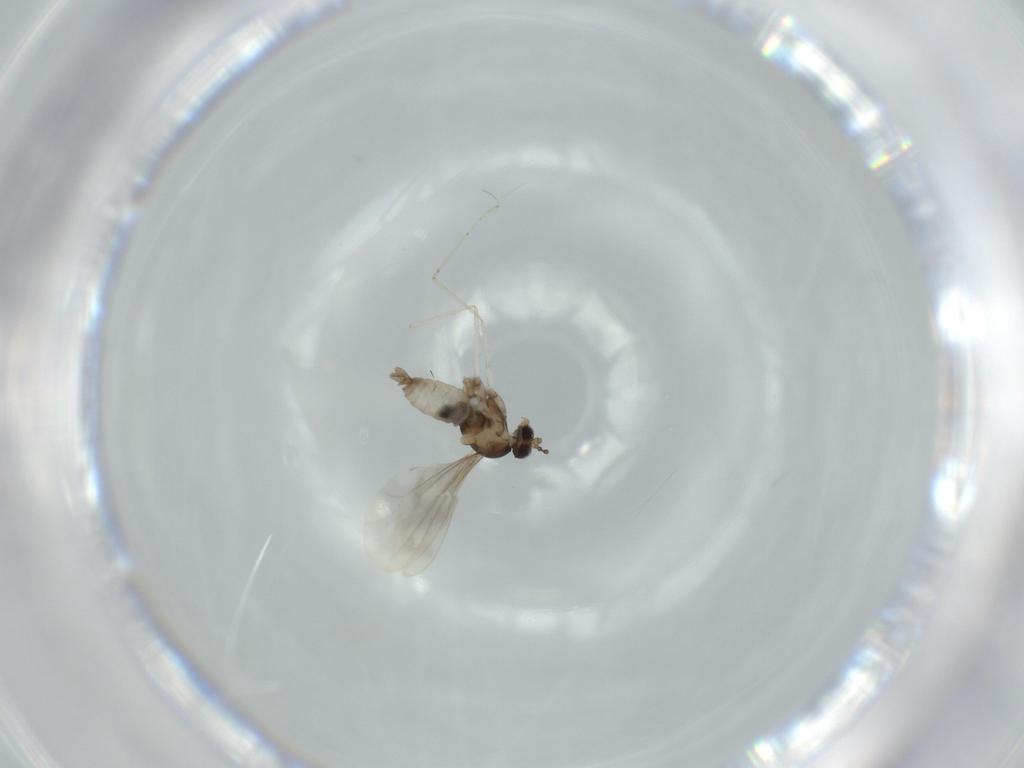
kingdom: Animalia
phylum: Arthropoda
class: Insecta
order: Diptera
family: Cecidomyiidae
